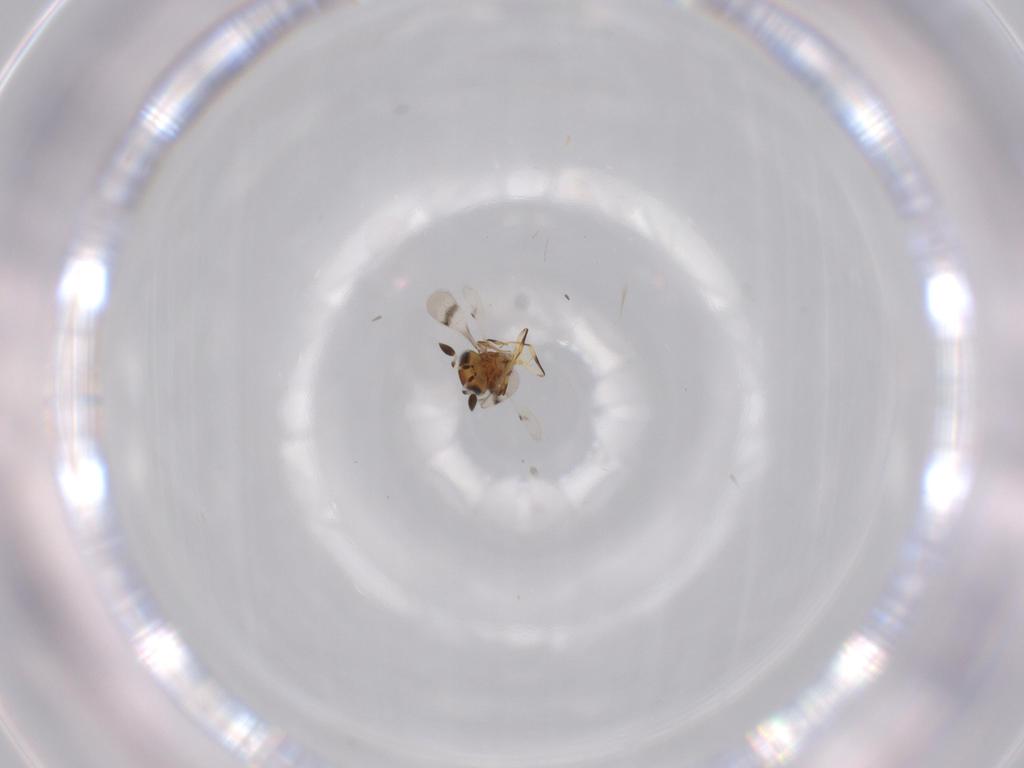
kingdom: Animalia
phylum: Arthropoda
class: Arachnida
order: Araneae
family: Pholcidae
